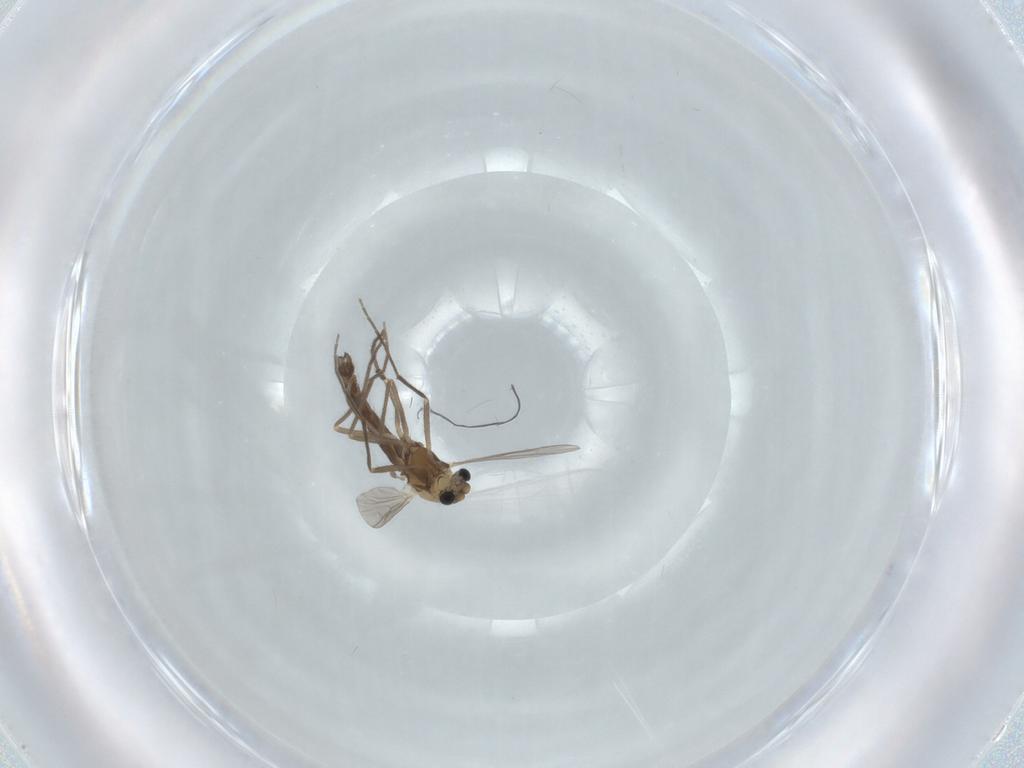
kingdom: Animalia
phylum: Arthropoda
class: Insecta
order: Diptera
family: Chironomidae
